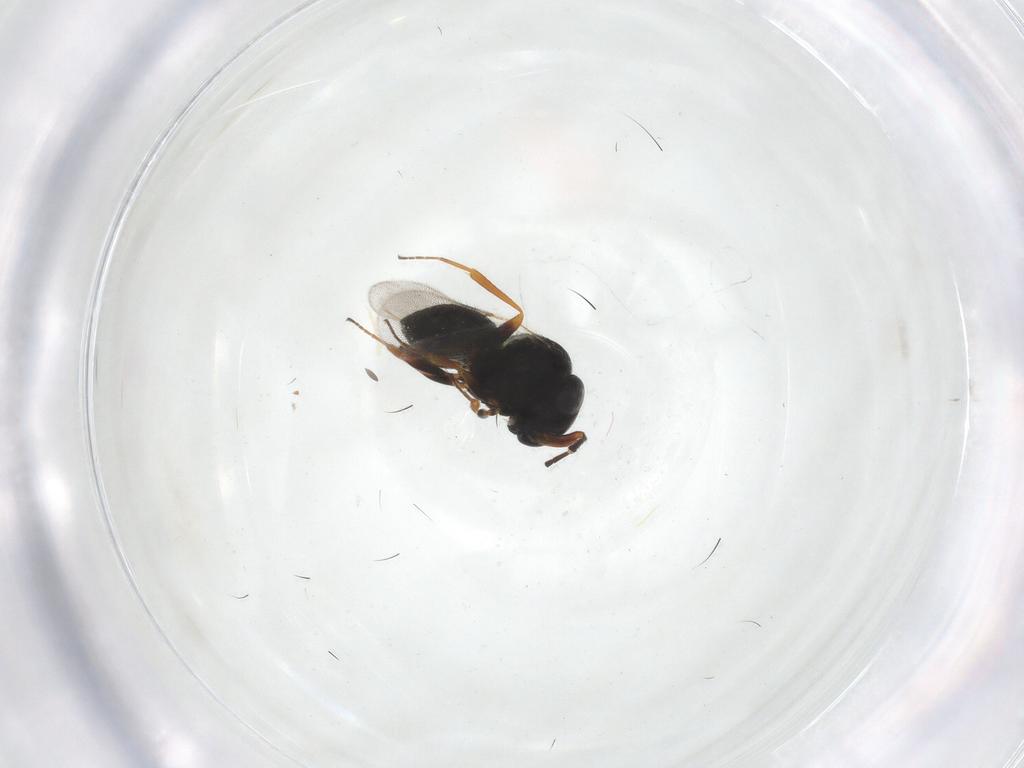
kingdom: Animalia
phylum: Arthropoda
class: Insecta
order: Hymenoptera
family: Scelionidae
